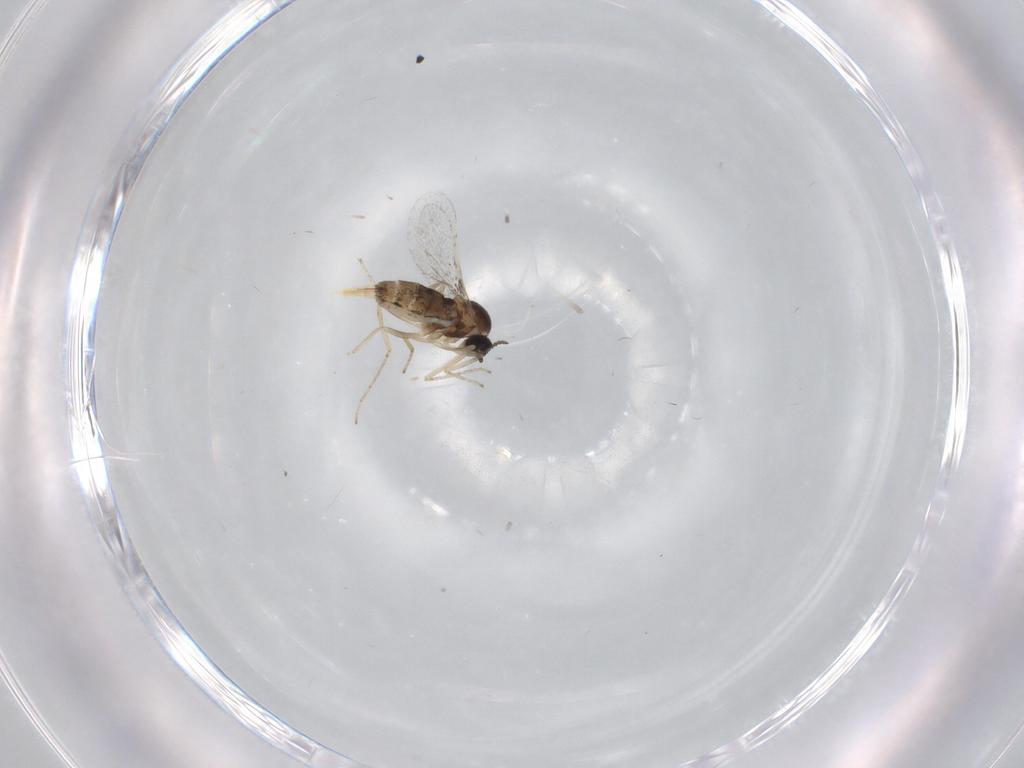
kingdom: Animalia
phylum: Arthropoda
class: Insecta
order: Diptera
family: Cecidomyiidae
